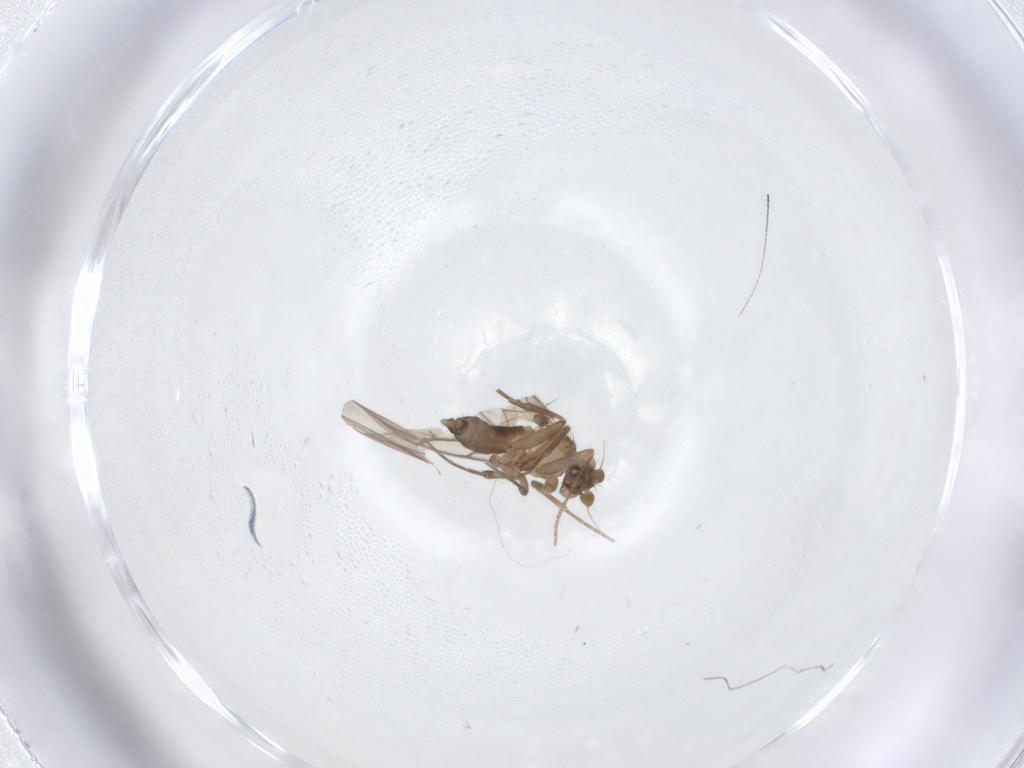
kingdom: Animalia
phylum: Arthropoda
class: Insecta
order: Diptera
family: Phoridae
